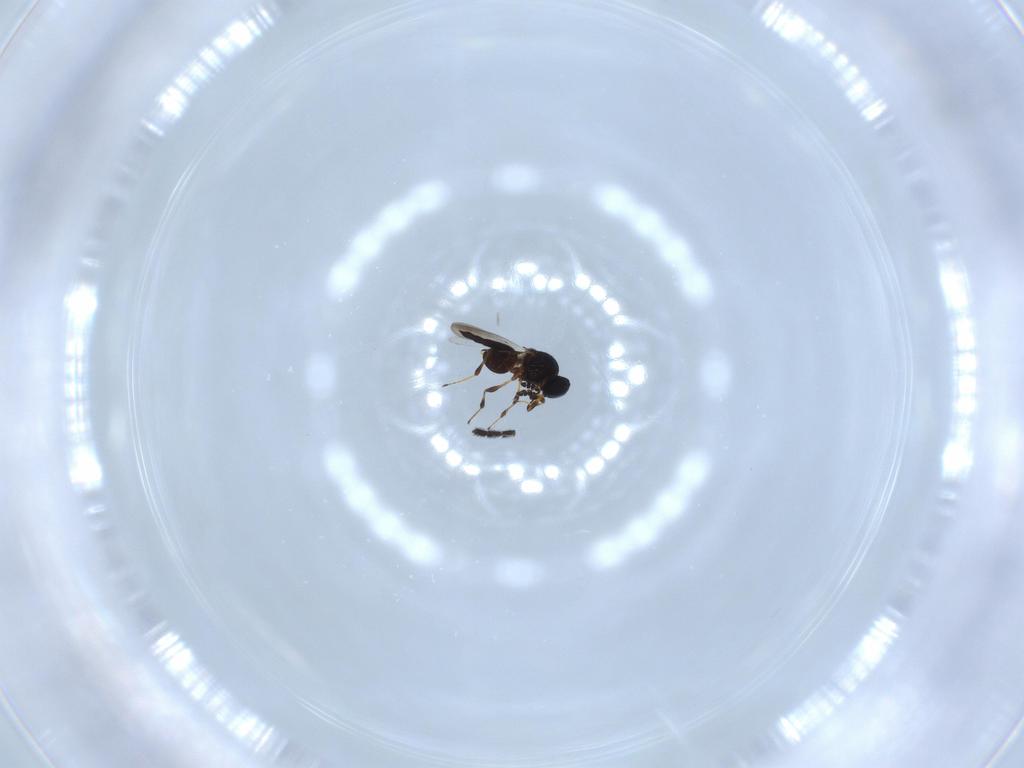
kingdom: Animalia
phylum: Arthropoda
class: Insecta
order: Hymenoptera
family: Platygastridae
